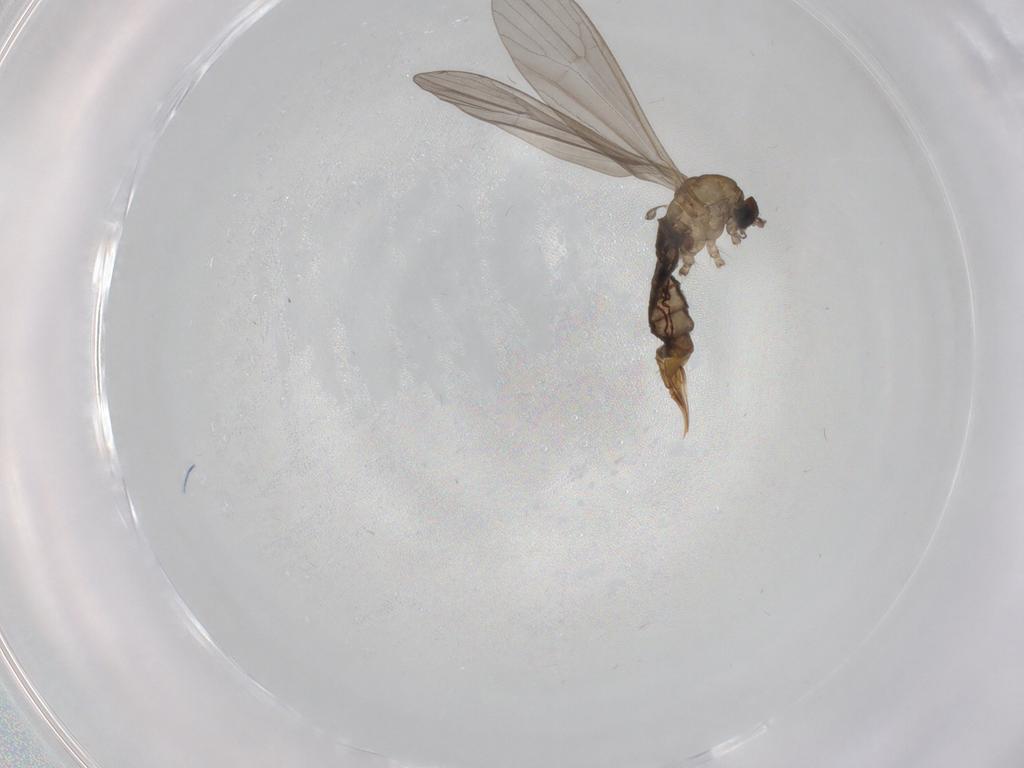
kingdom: Animalia
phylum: Arthropoda
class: Insecta
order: Diptera
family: Limoniidae
